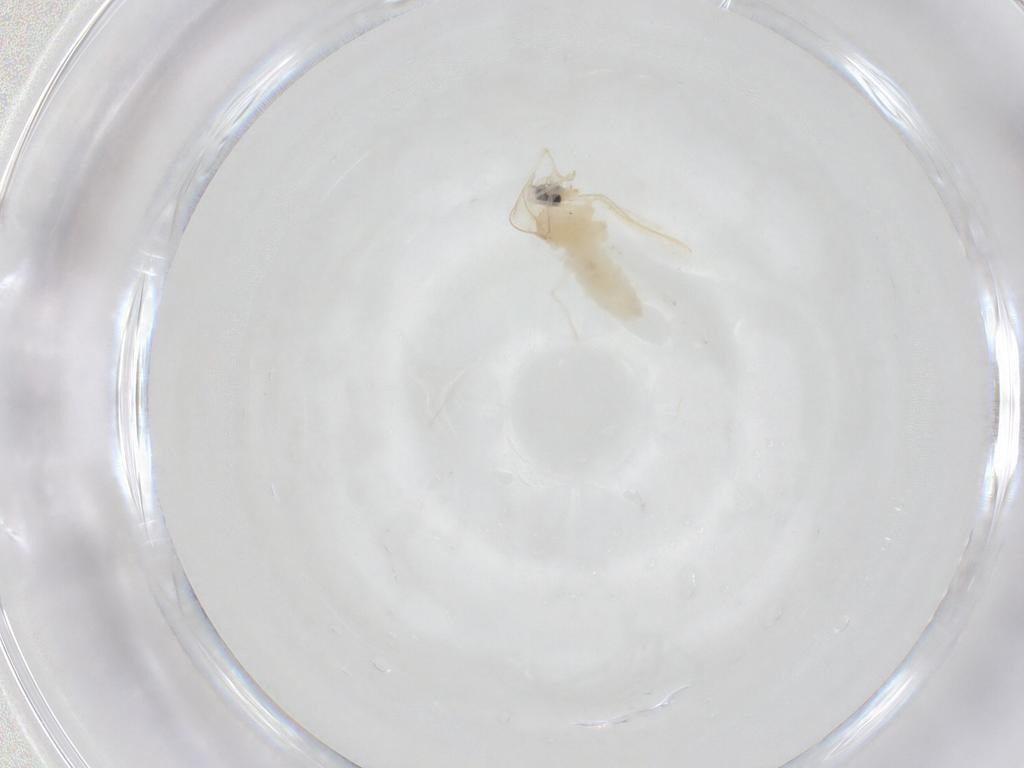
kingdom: Animalia
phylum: Arthropoda
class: Insecta
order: Diptera
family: Cecidomyiidae
